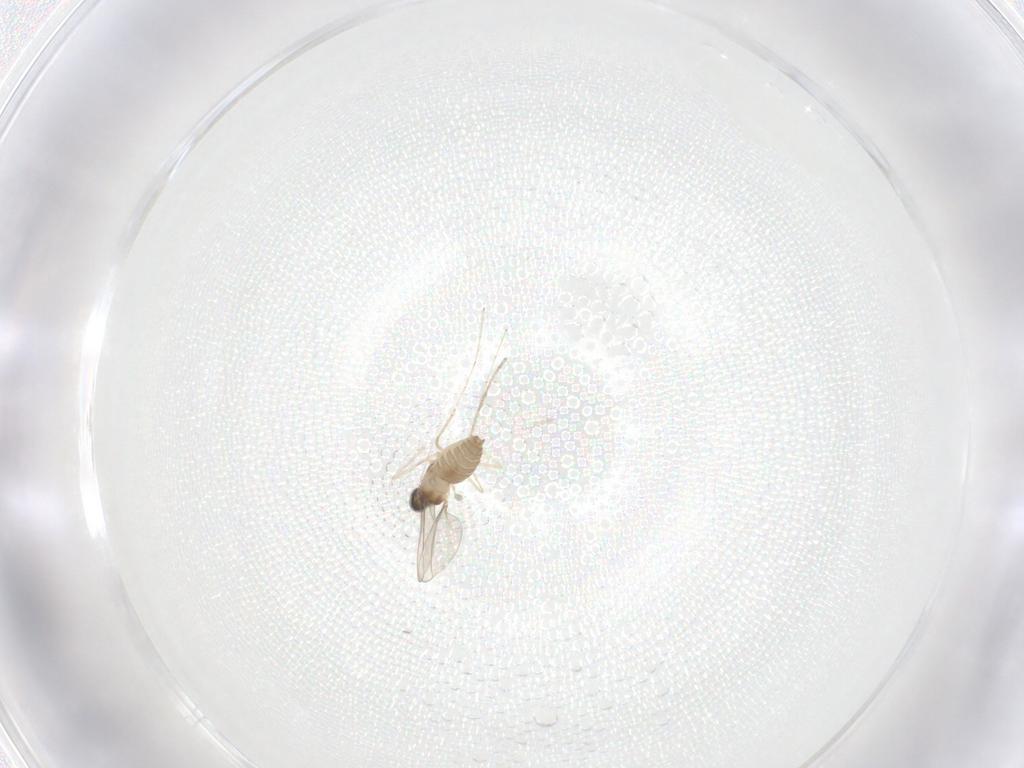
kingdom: Animalia
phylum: Arthropoda
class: Insecta
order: Diptera
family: Cecidomyiidae
